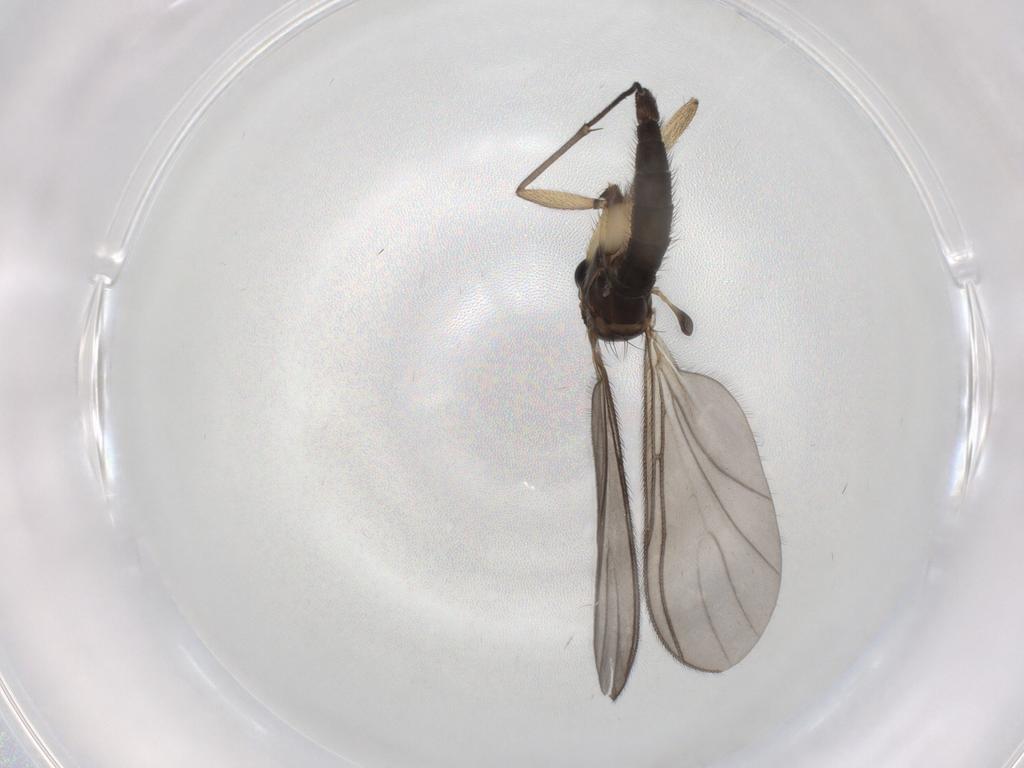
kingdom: Animalia
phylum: Arthropoda
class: Insecta
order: Diptera
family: Sciaridae
